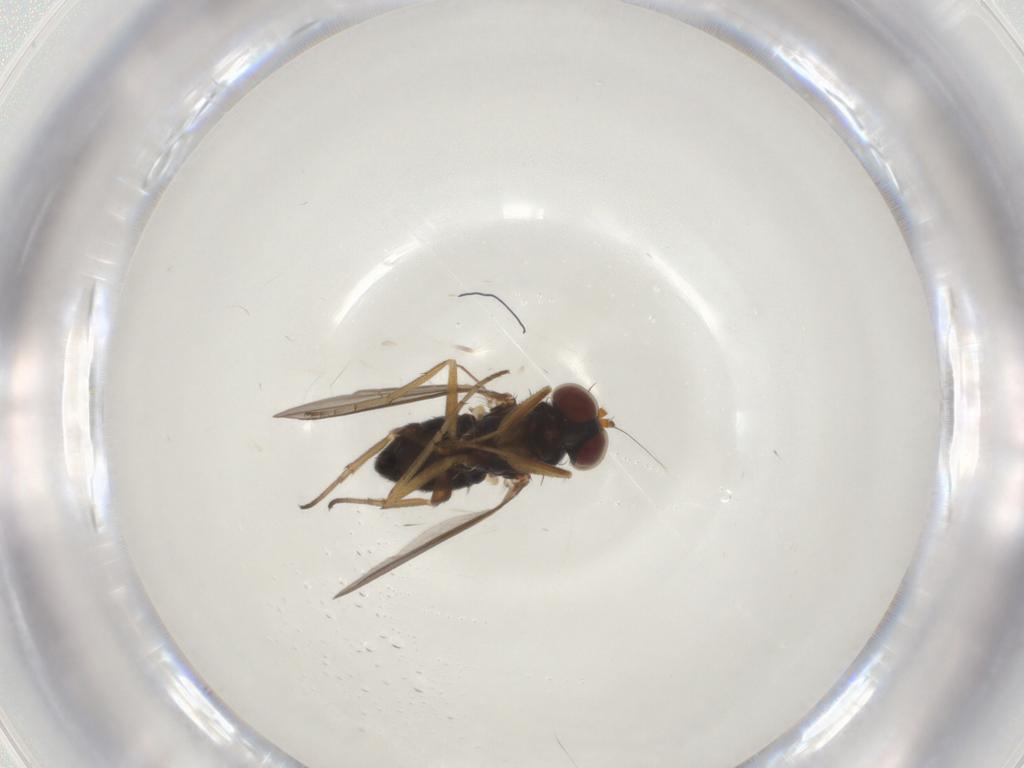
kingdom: Animalia
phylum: Arthropoda
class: Insecta
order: Diptera
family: Dolichopodidae
